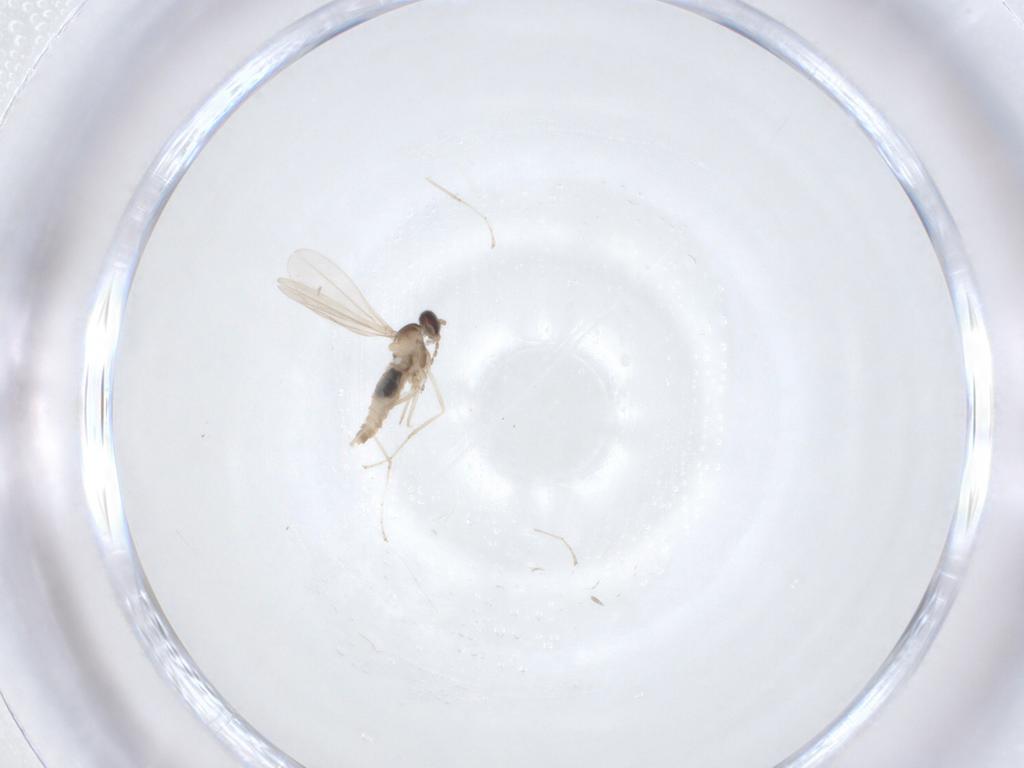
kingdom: Animalia
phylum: Arthropoda
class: Insecta
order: Diptera
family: Cecidomyiidae
